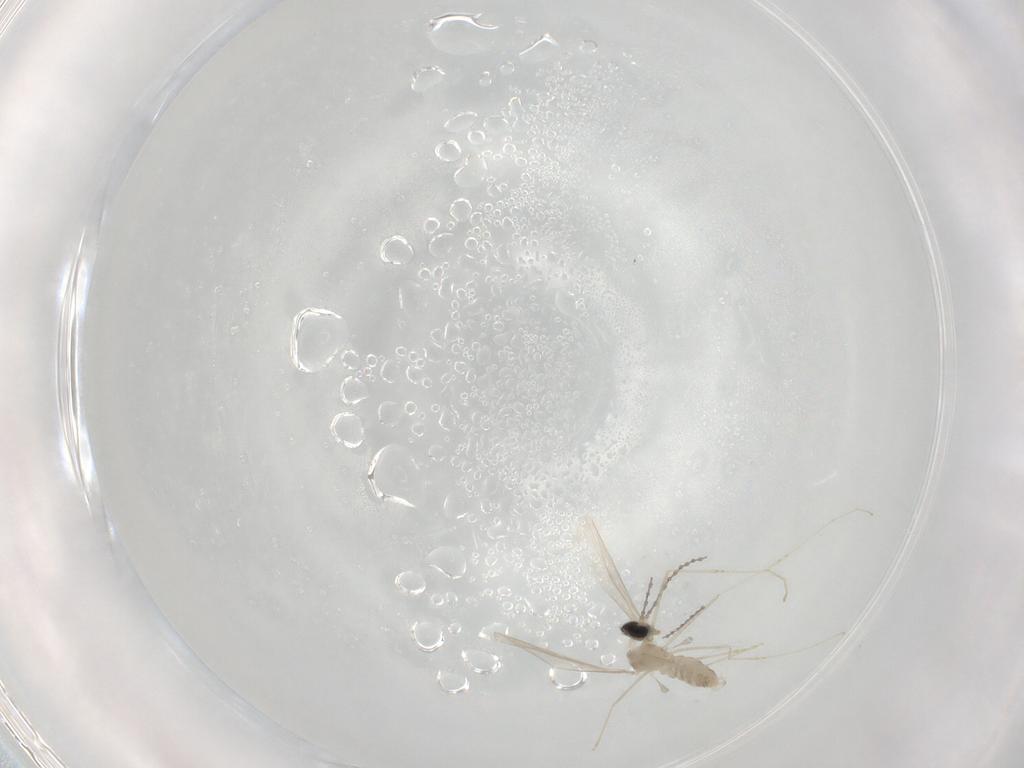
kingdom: Animalia
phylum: Arthropoda
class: Insecta
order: Diptera
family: Cecidomyiidae
